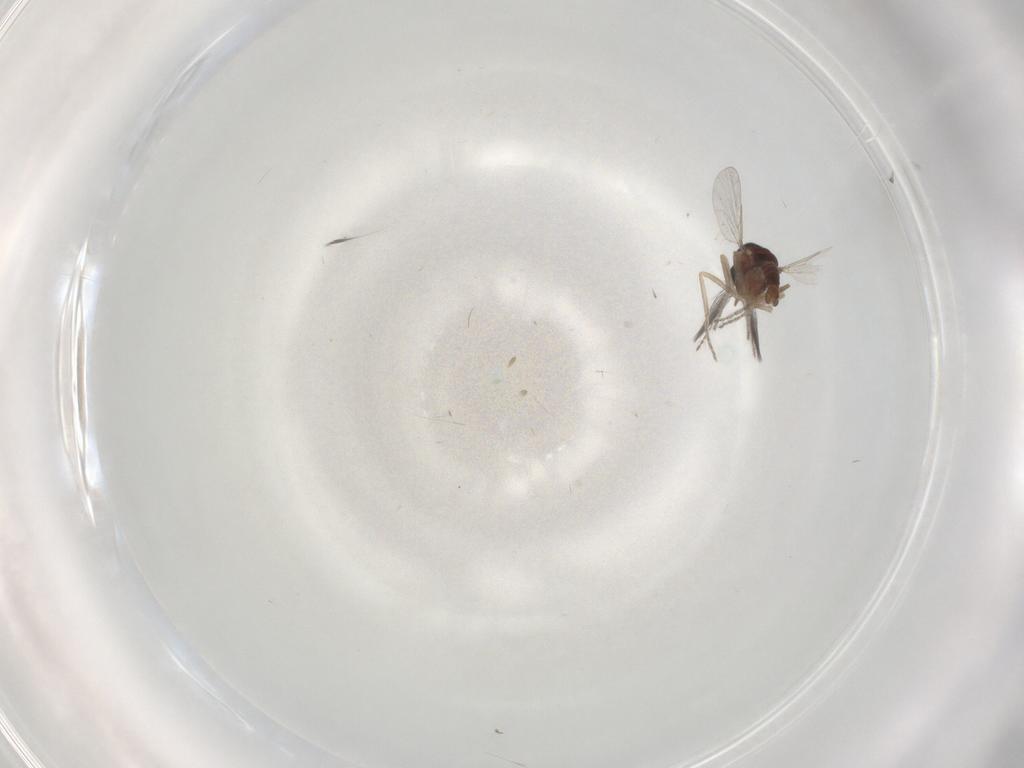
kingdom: Animalia
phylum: Arthropoda
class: Insecta
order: Diptera
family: Ceratopogonidae
